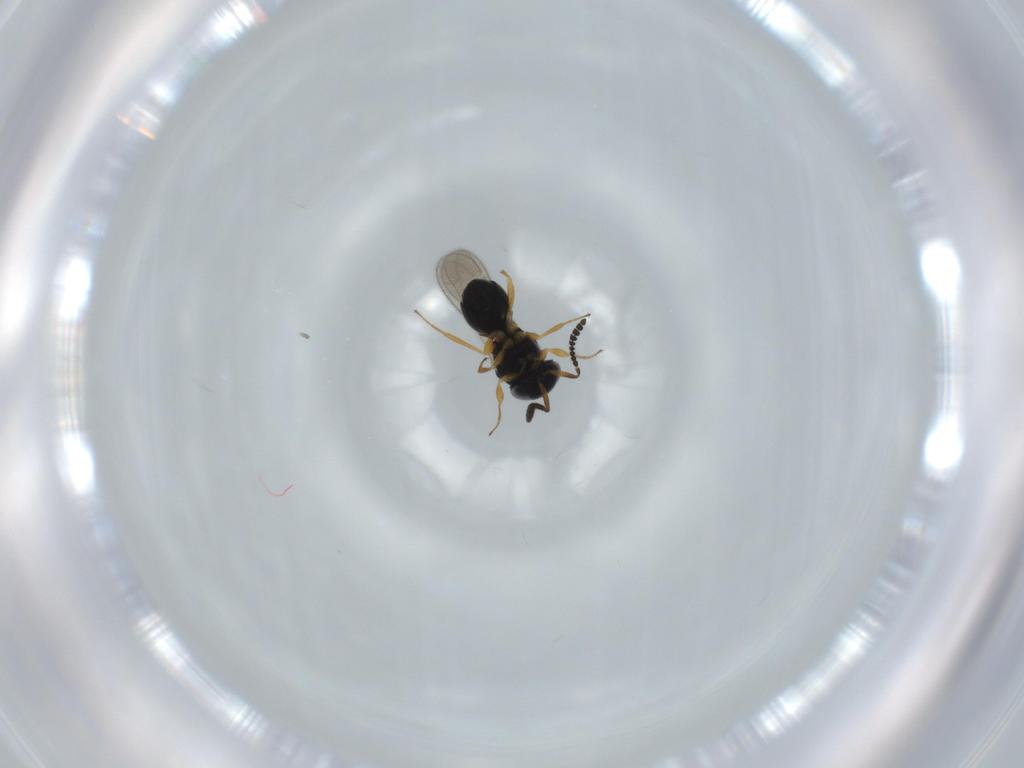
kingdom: Animalia
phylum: Arthropoda
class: Insecta
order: Hymenoptera
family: Scelionidae
